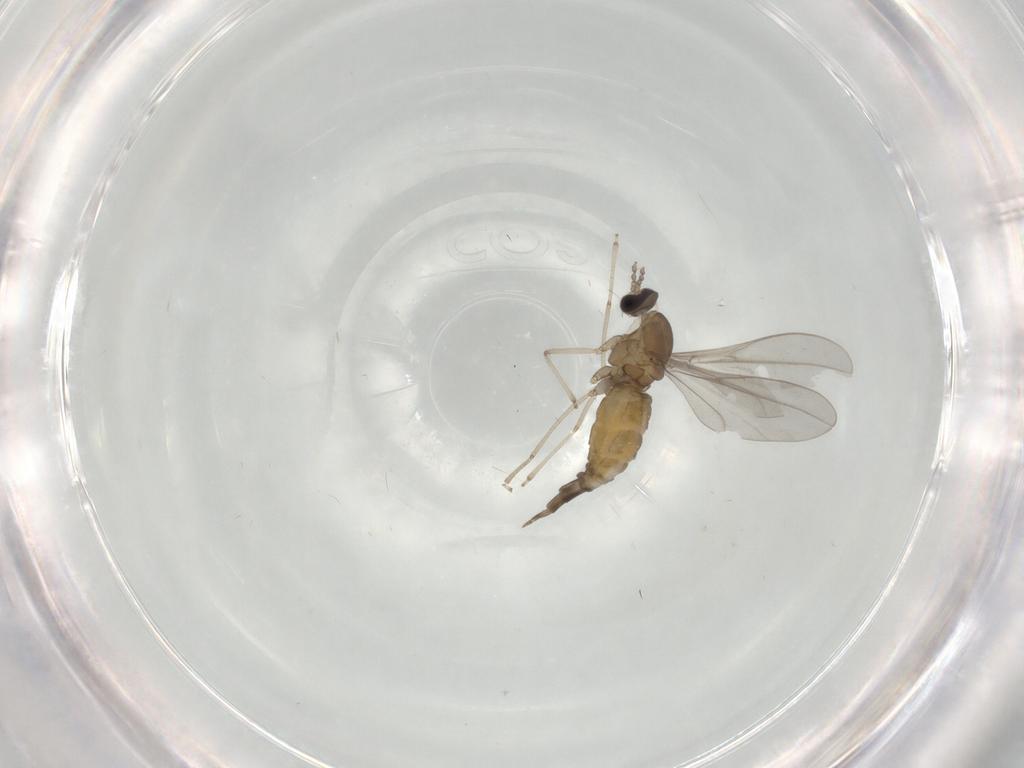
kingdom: Animalia
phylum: Arthropoda
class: Insecta
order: Diptera
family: Cecidomyiidae
